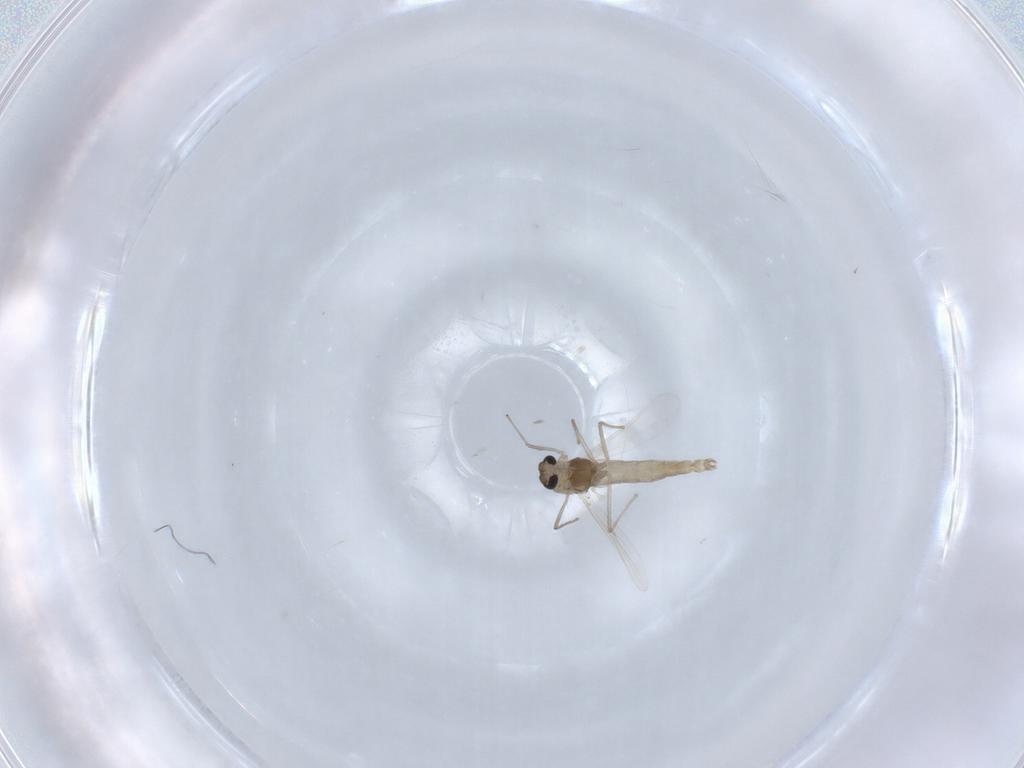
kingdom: Animalia
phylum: Arthropoda
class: Insecta
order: Diptera
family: Chironomidae
